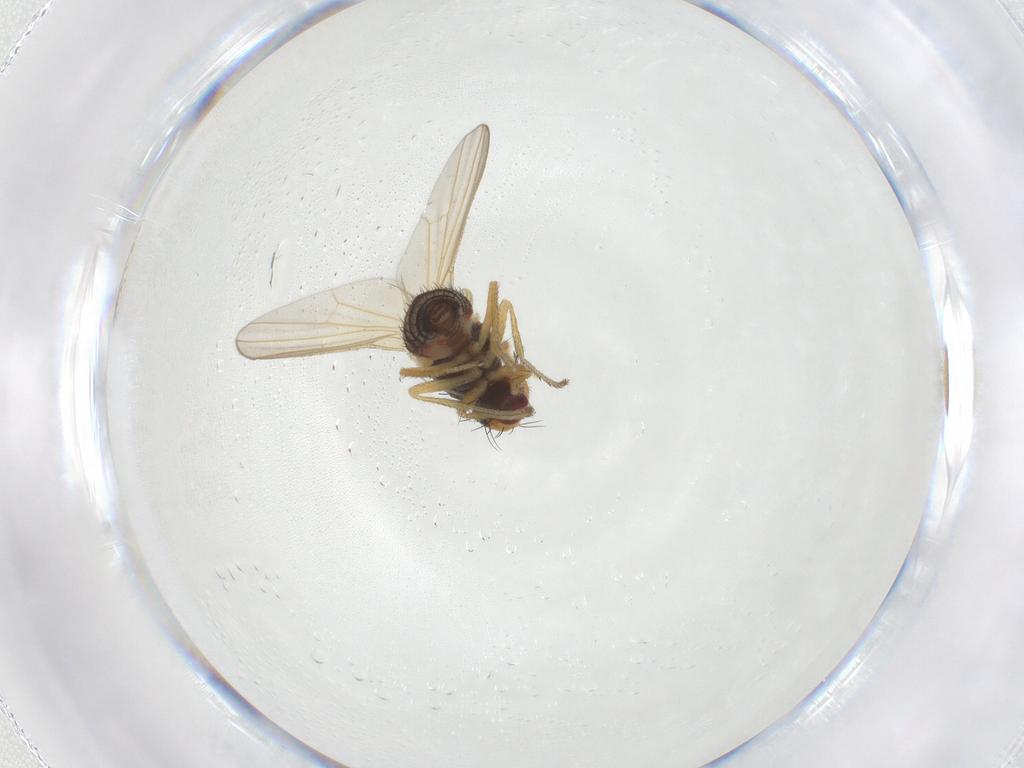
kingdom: Animalia
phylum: Arthropoda
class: Insecta
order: Diptera
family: Heleomyzidae
